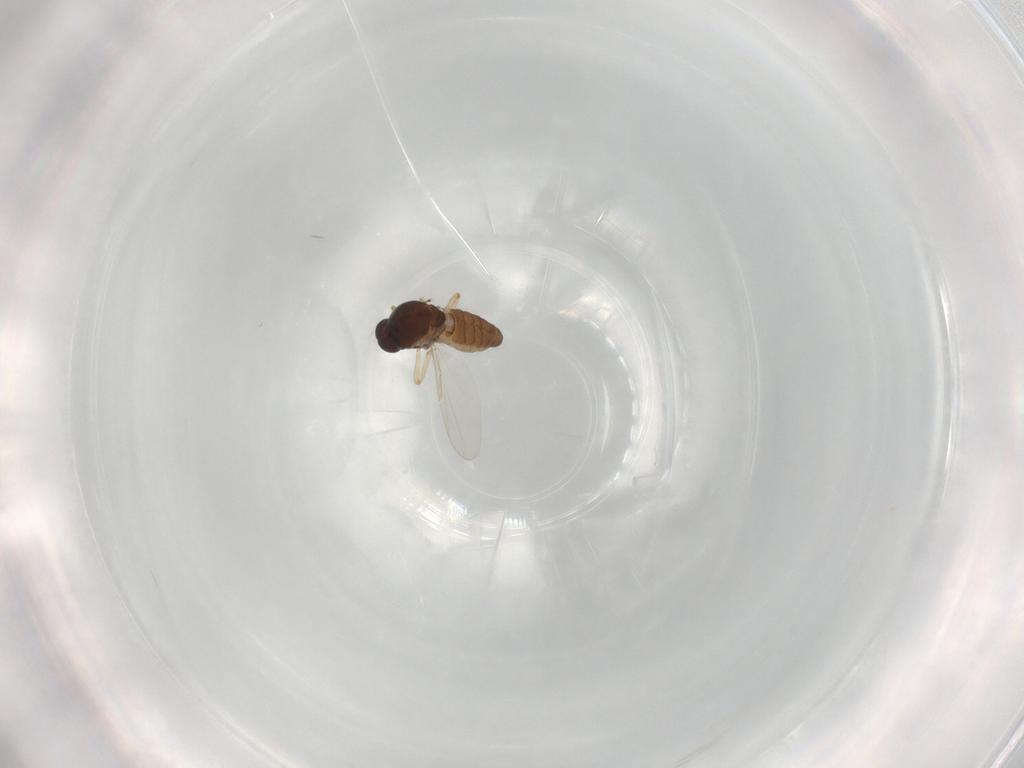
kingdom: Animalia
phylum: Arthropoda
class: Insecta
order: Diptera
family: Ceratopogonidae
